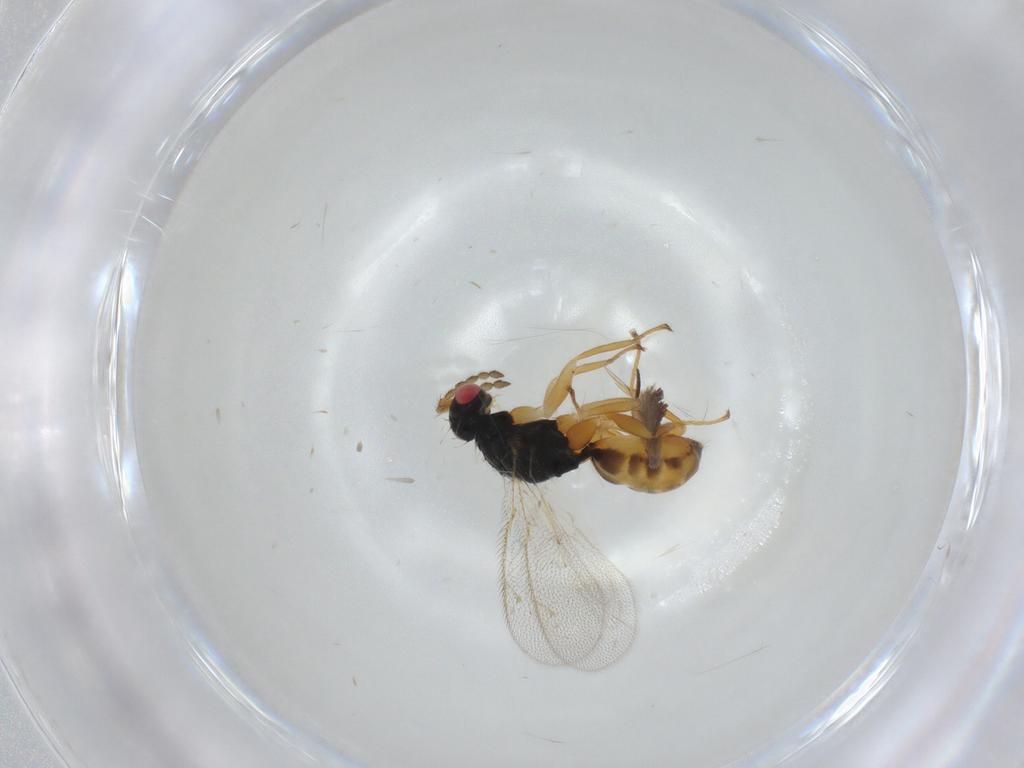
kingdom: Animalia
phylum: Arthropoda
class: Insecta
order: Hymenoptera
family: Eulophidae
